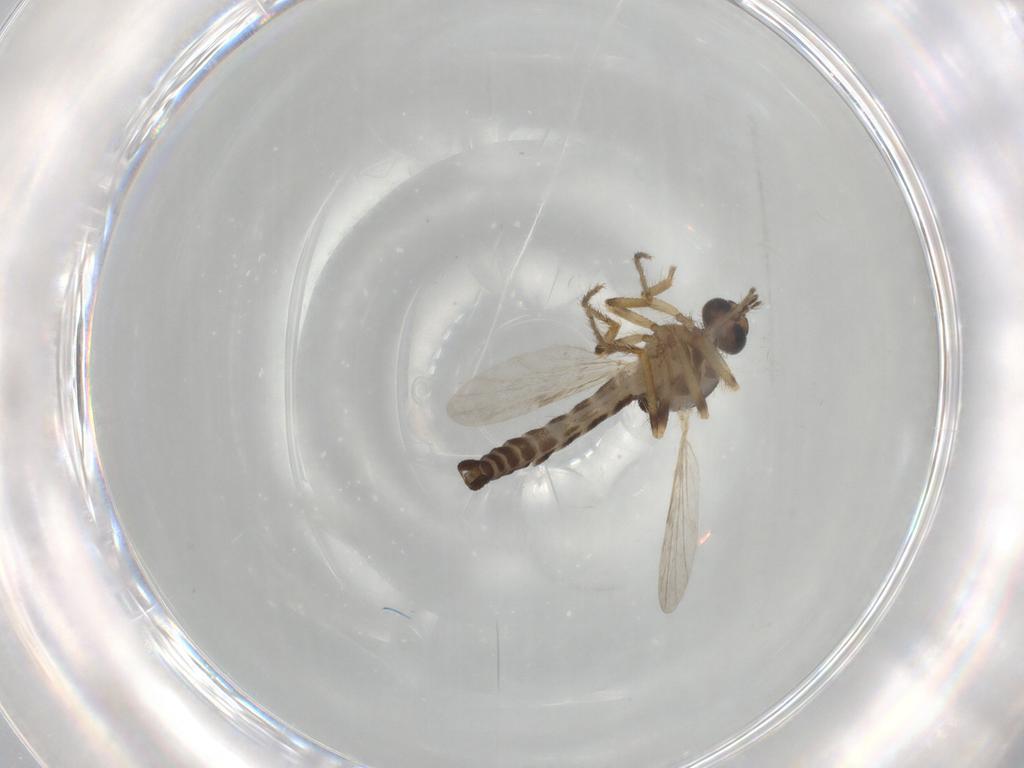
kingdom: Animalia
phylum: Arthropoda
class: Insecta
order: Diptera
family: Ceratopogonidae
